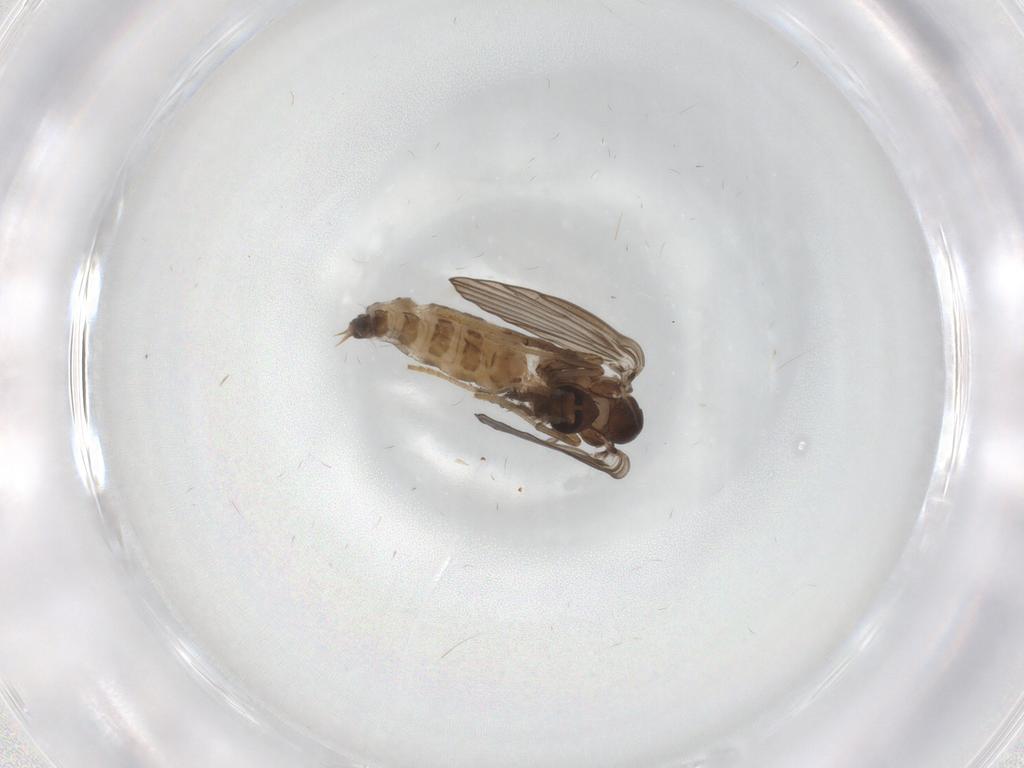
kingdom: Animalia
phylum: Arthropoda
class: Insecta
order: Diptera
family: Psychodidae
